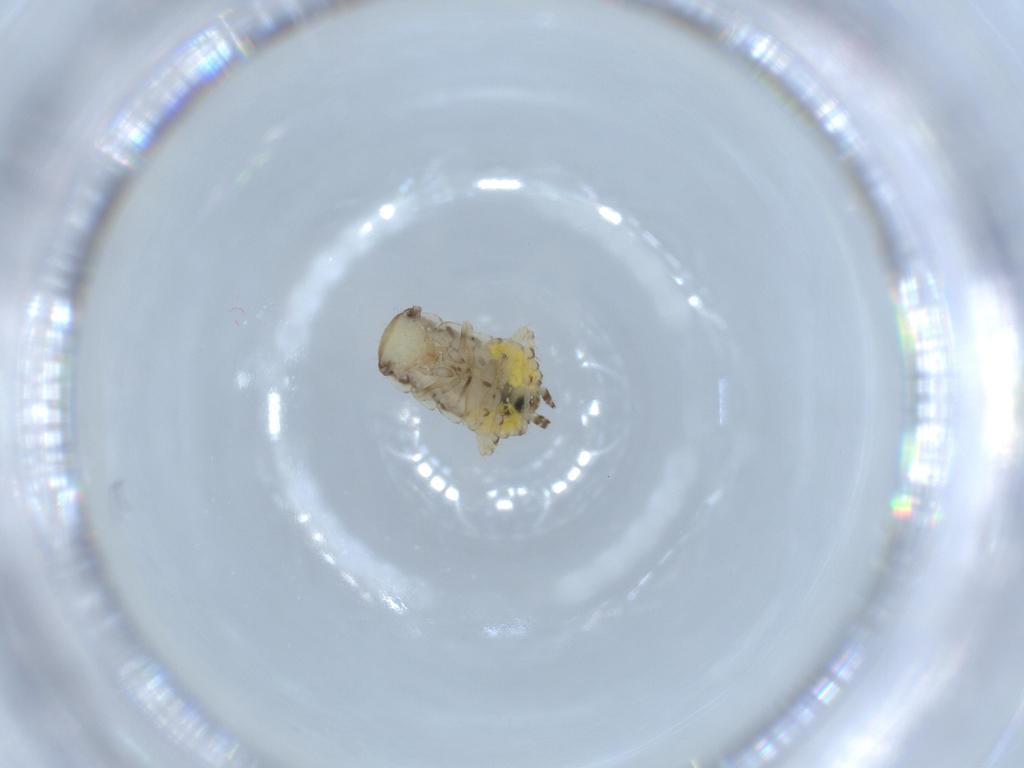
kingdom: Animalia
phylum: Arthropoda
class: Insecta
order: Blattodea
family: Ectobiidae
